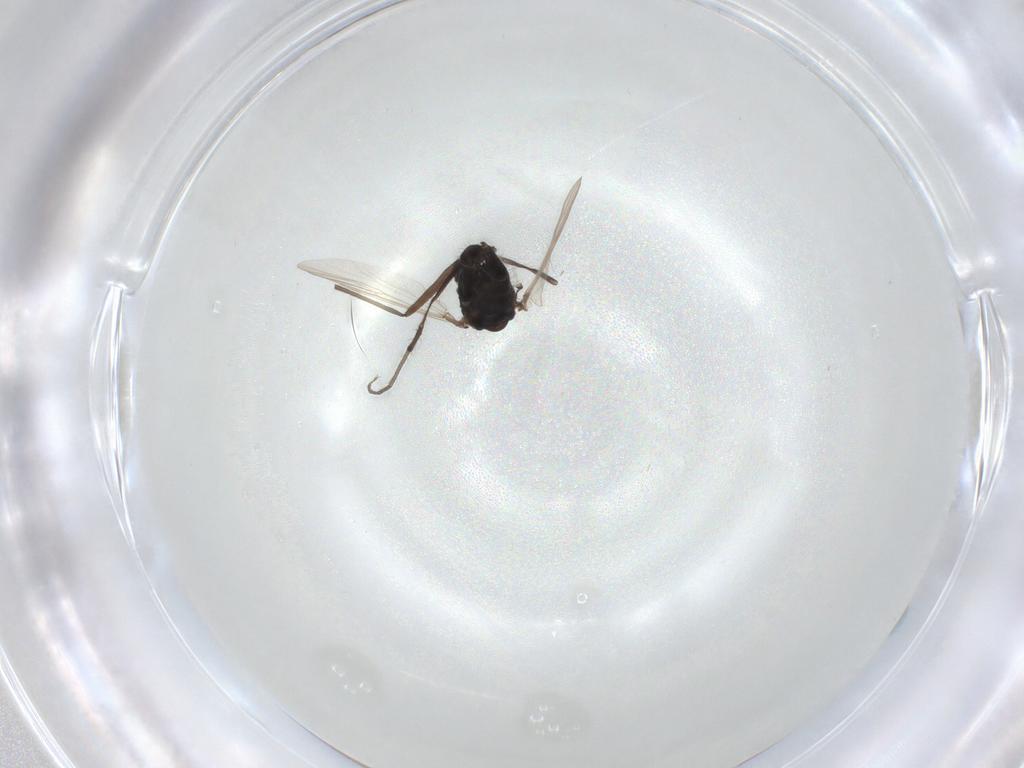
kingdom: Animalia
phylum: Arthropoda
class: Insecta
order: Diptera
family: Chironomidae
